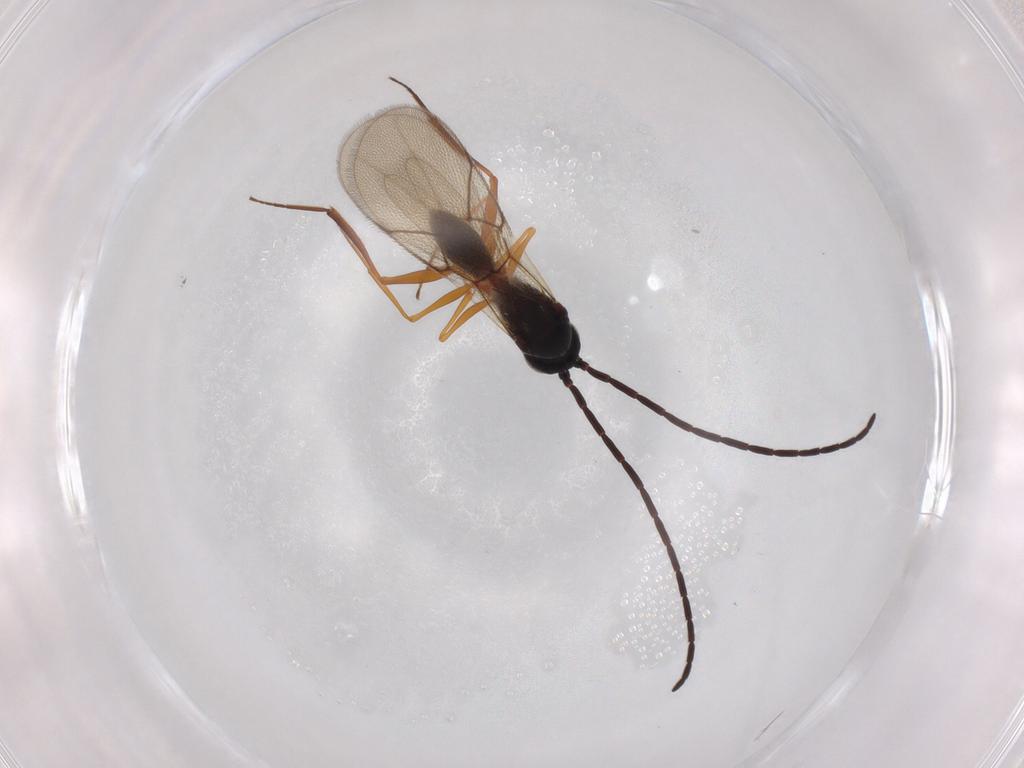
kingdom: Animalia
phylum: Arthropoda
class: Insecta
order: Hymenoptera
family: Figitidae
